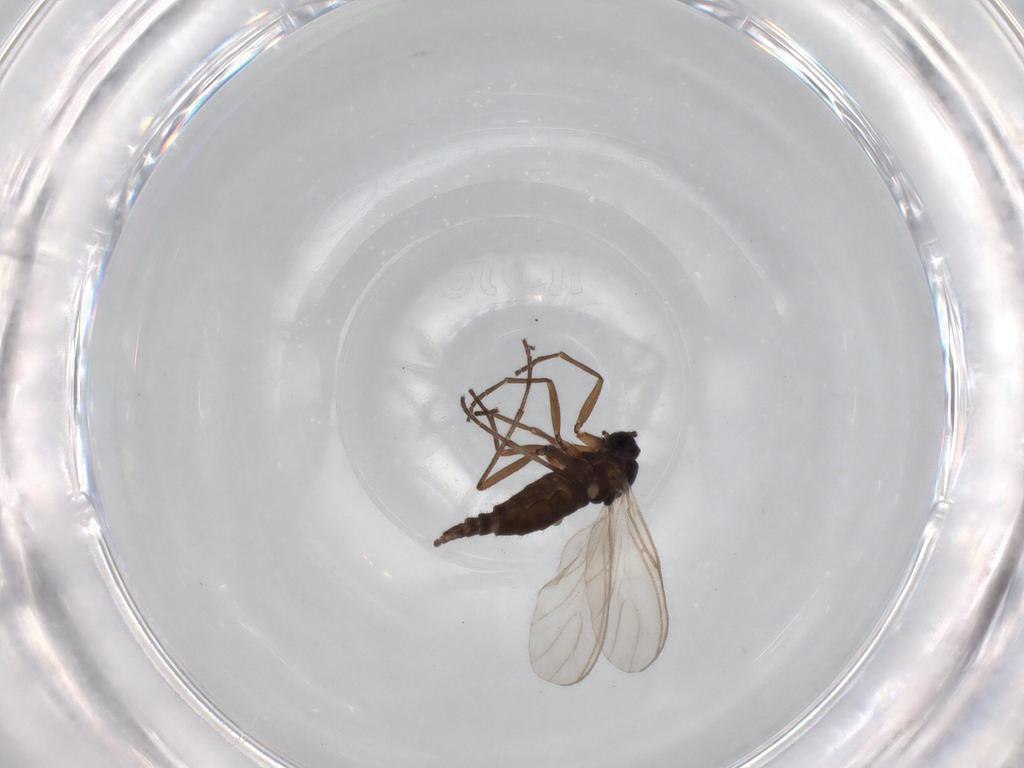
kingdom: Animalia
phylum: Arthropoda
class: Insecta
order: Diptera
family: Sciaridae
